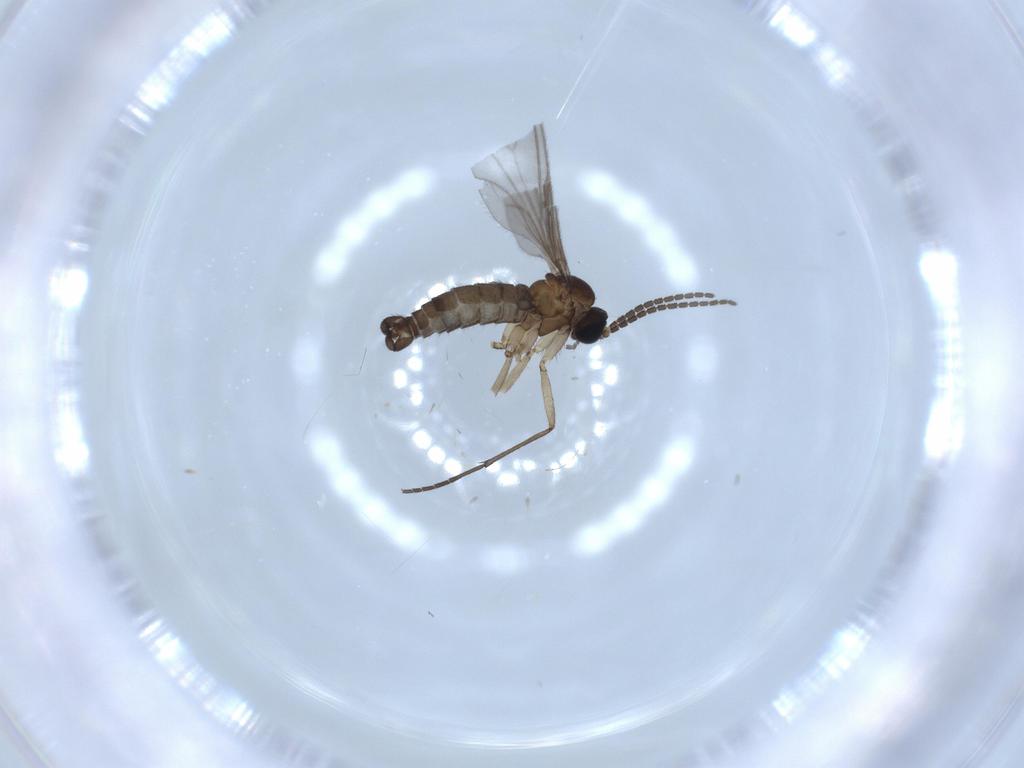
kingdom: Animalia
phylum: Arthropoda
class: Insecta
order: Diptera
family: Sciaridae
